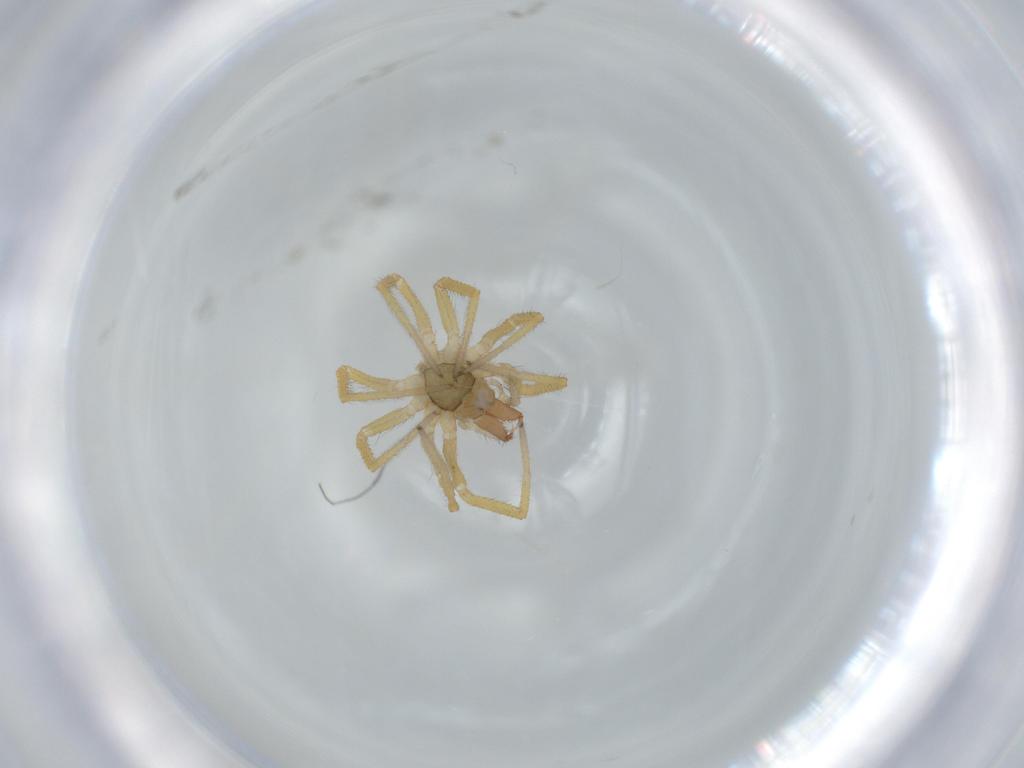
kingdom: Animalia
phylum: Arthropoda
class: Arachnida
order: Araneae
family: Linyphiidae
